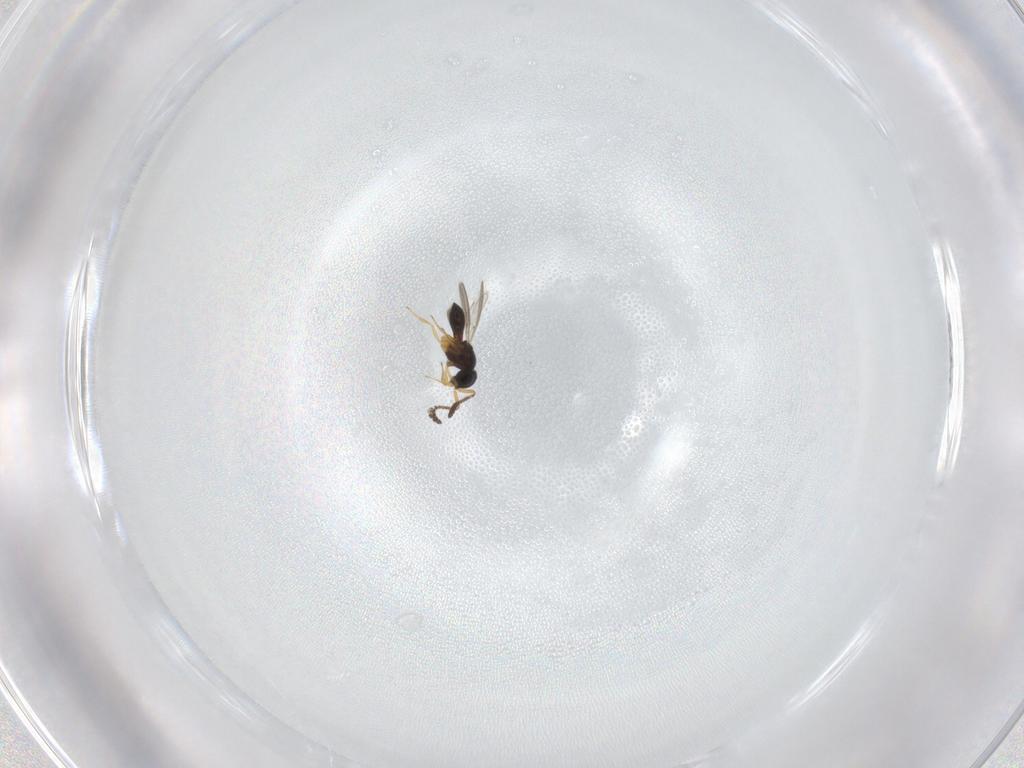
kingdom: Animalia
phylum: Arthropoda
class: Insecta
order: Hymenoptera
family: Scelionidae
